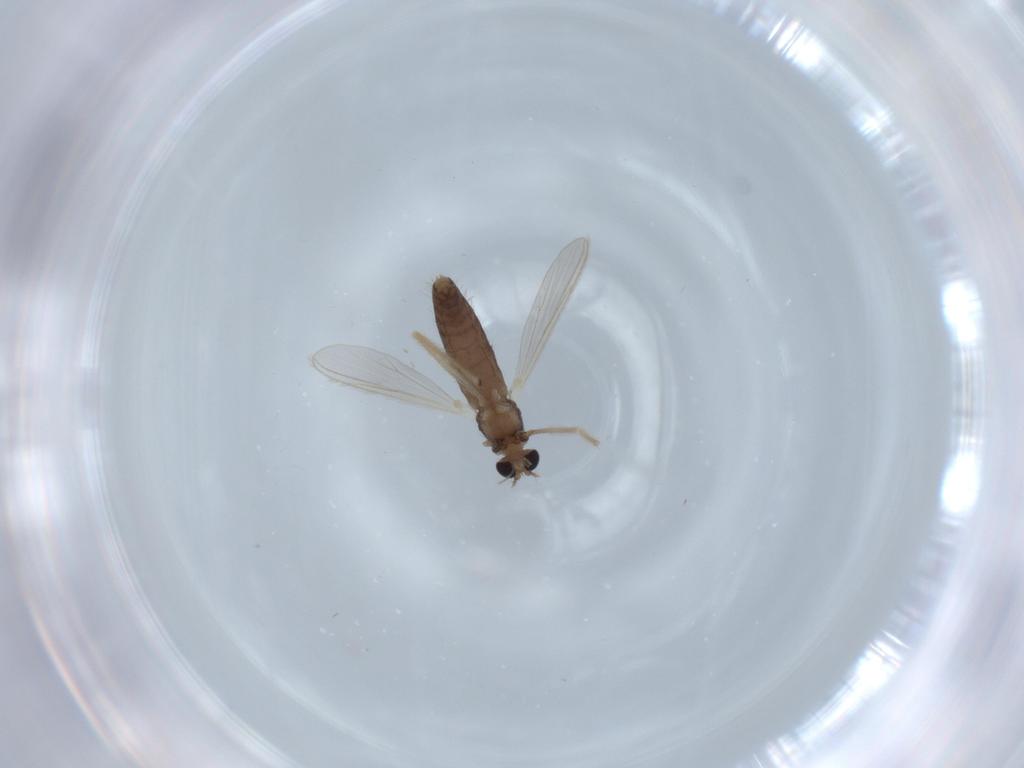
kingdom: Animalia
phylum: Arthropoda
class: Insecta
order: Diptera
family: Chironomidae
